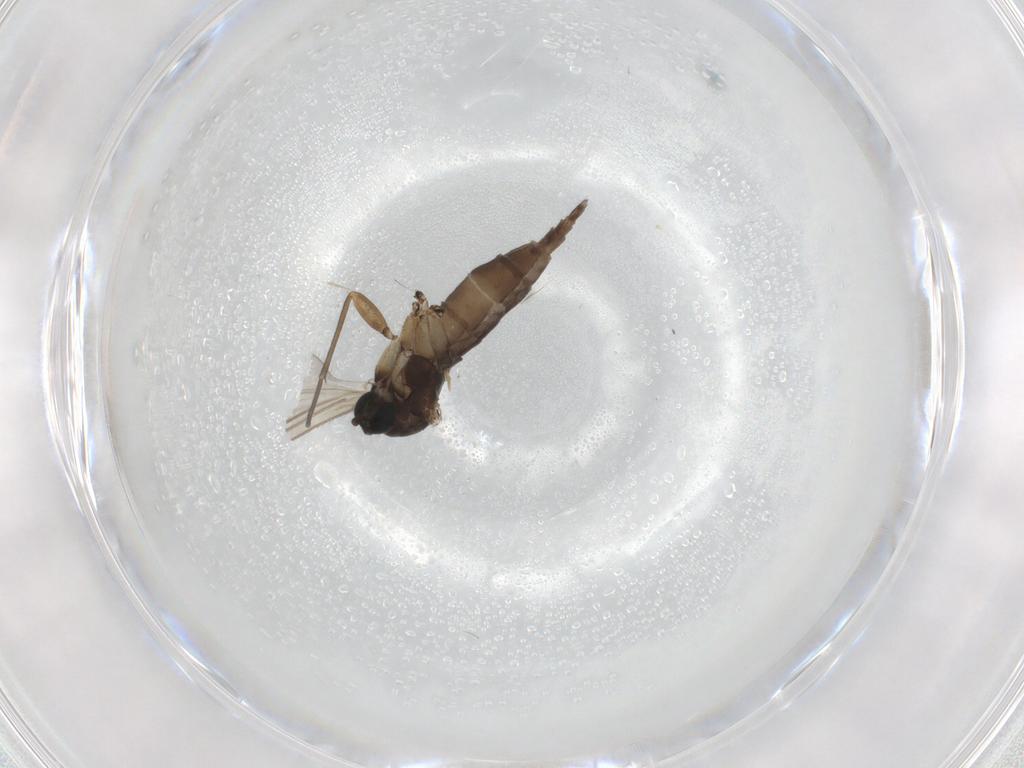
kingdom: Animalia
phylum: Arthropoda
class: Insecta
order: Diptera
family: Sciaridae
